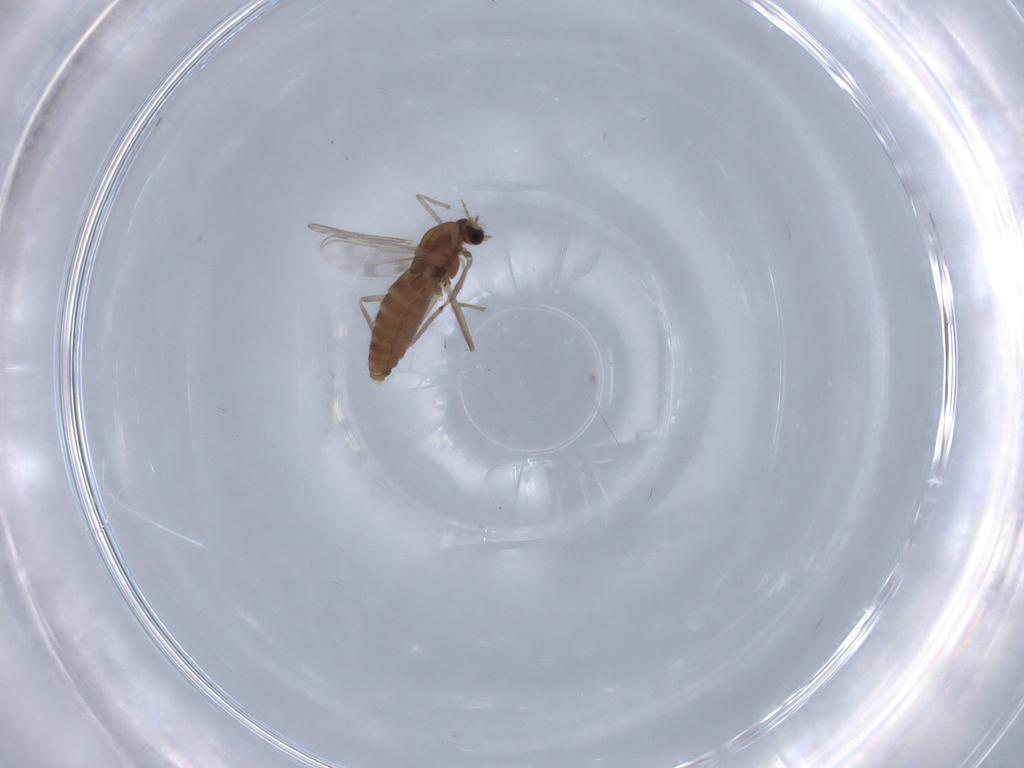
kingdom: Animalia
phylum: Arthropoda
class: Insecta
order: Diptera
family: Chironomidae
